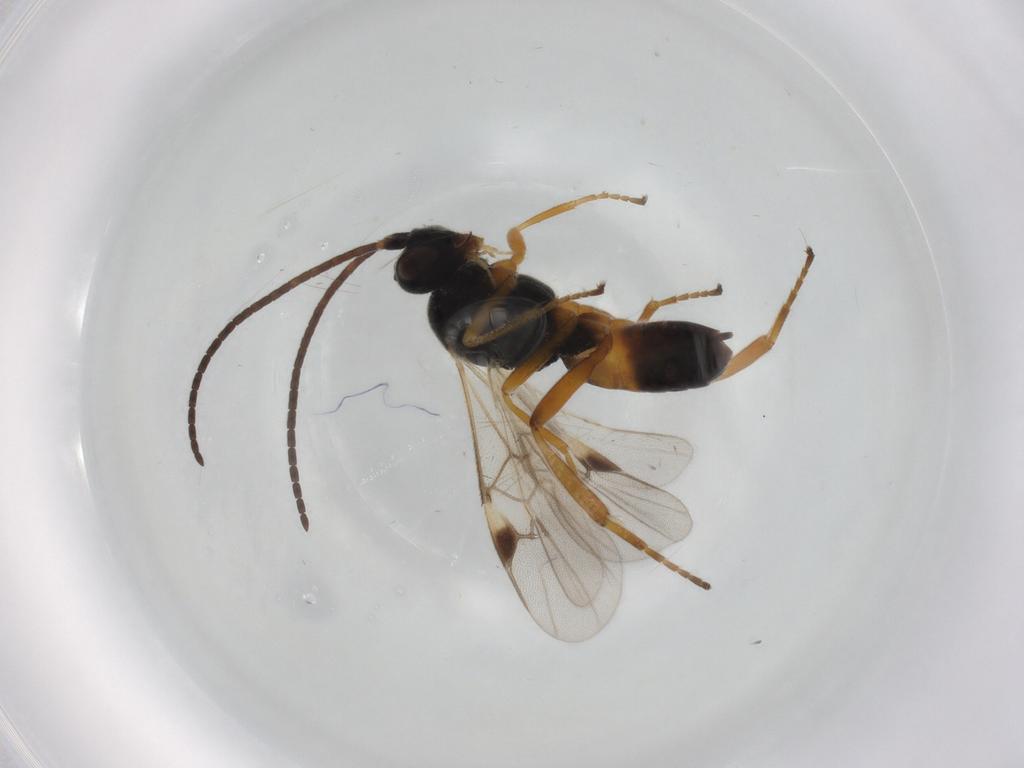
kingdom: Animalia
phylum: Arthropoda
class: Insecta
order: Hymenoptera
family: Braconidae
